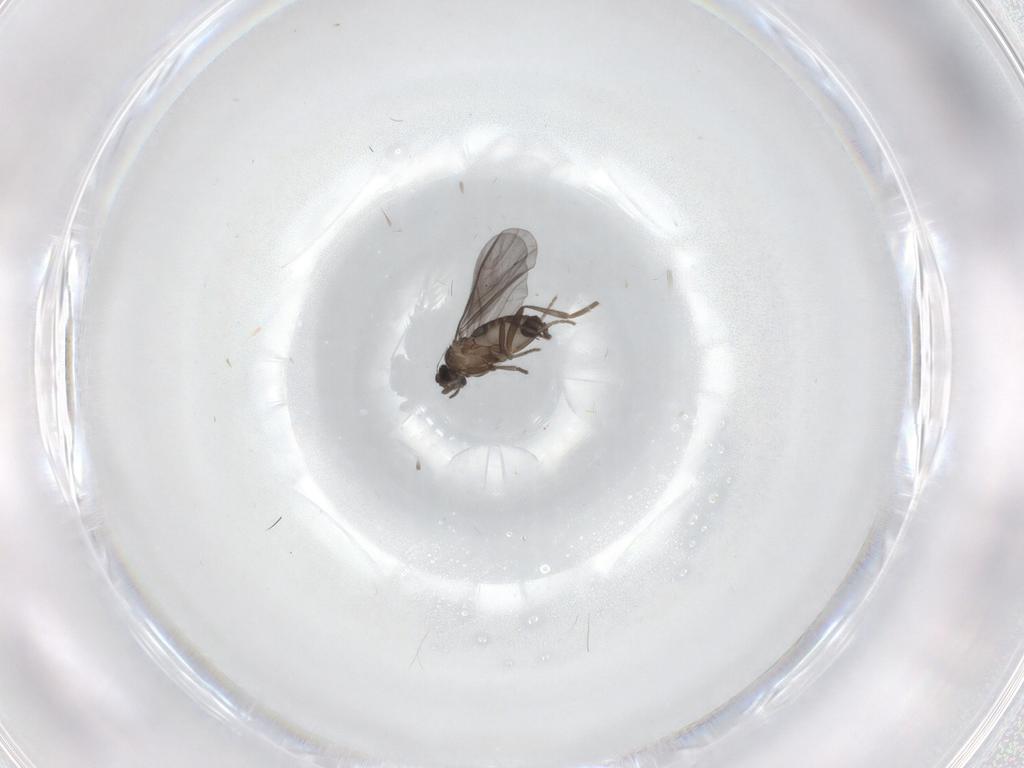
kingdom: Animalia
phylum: Arthropoda
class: Insecta
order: Diptera
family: Phoridae
